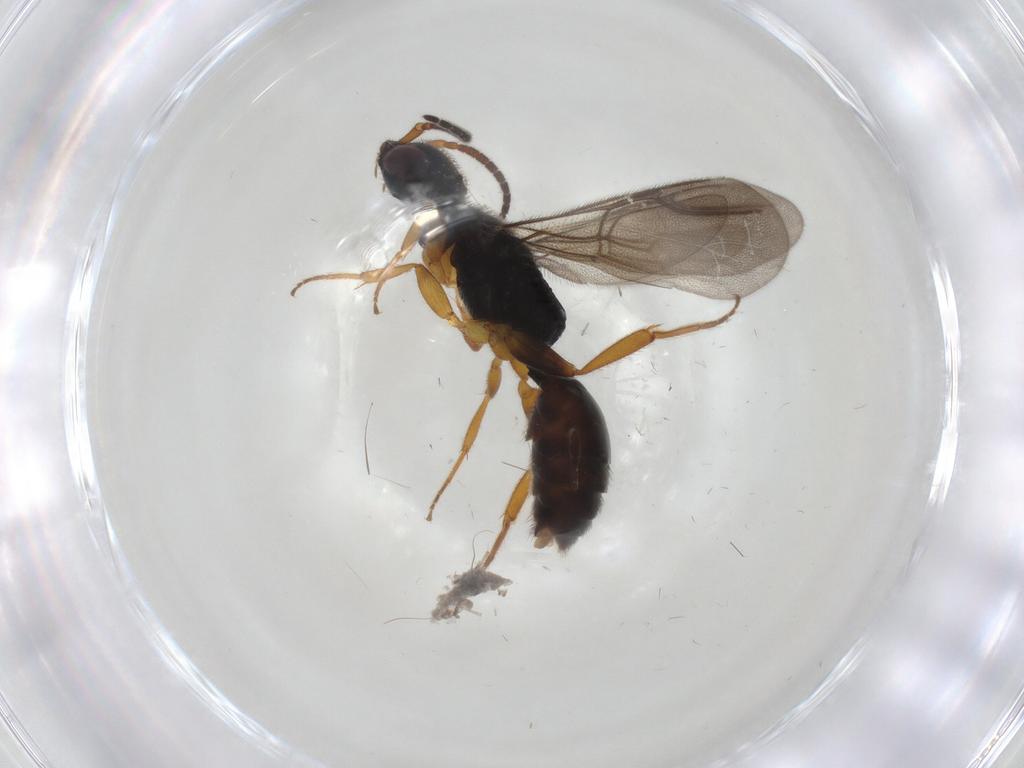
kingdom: Animalia
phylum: Arthropoda
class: Insecta
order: Hymenoptera
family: Bethylidae
